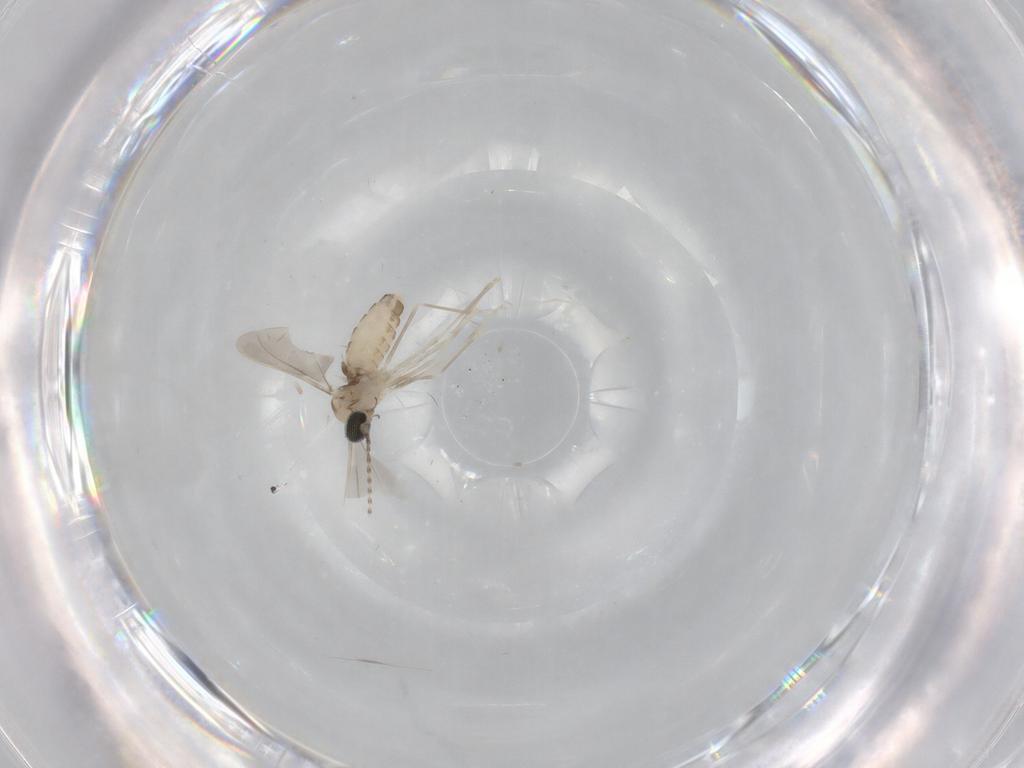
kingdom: Animalia
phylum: Arthropoda
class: Insecta
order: Diptera
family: Cecidomyiidae
